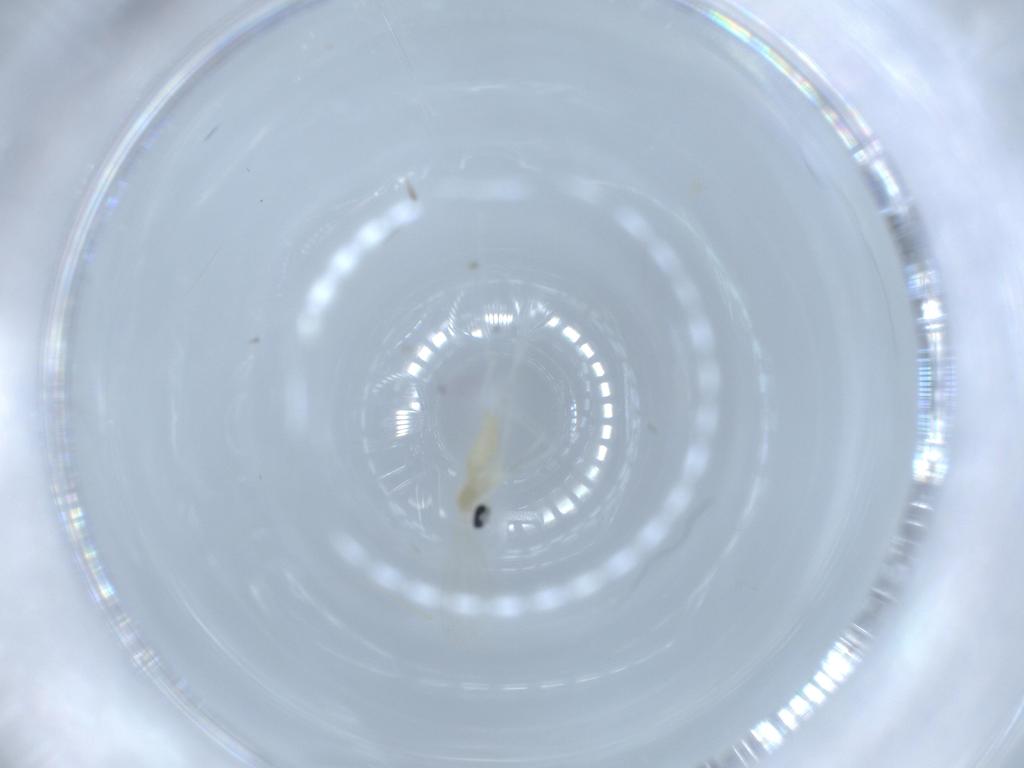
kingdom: Animalia
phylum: Arthropoda
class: Insecta
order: Diptera
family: Cecidomyiidae
